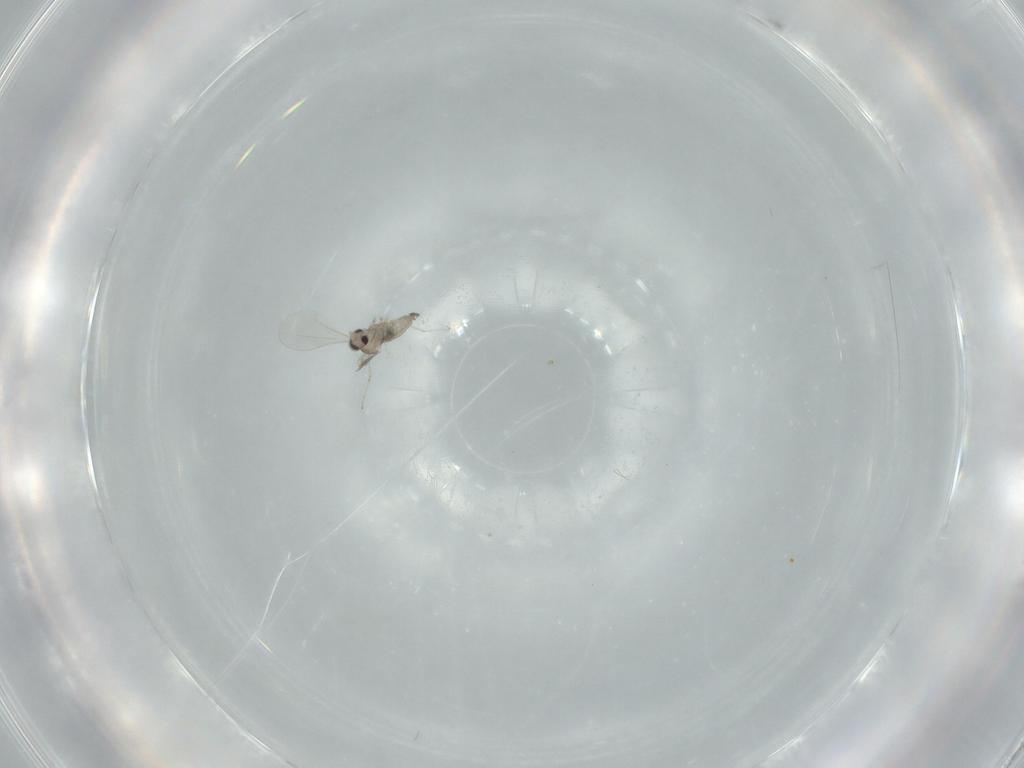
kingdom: Animalia
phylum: Arthropoda
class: Insecta
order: Diptera
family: Cecidomyiidae
